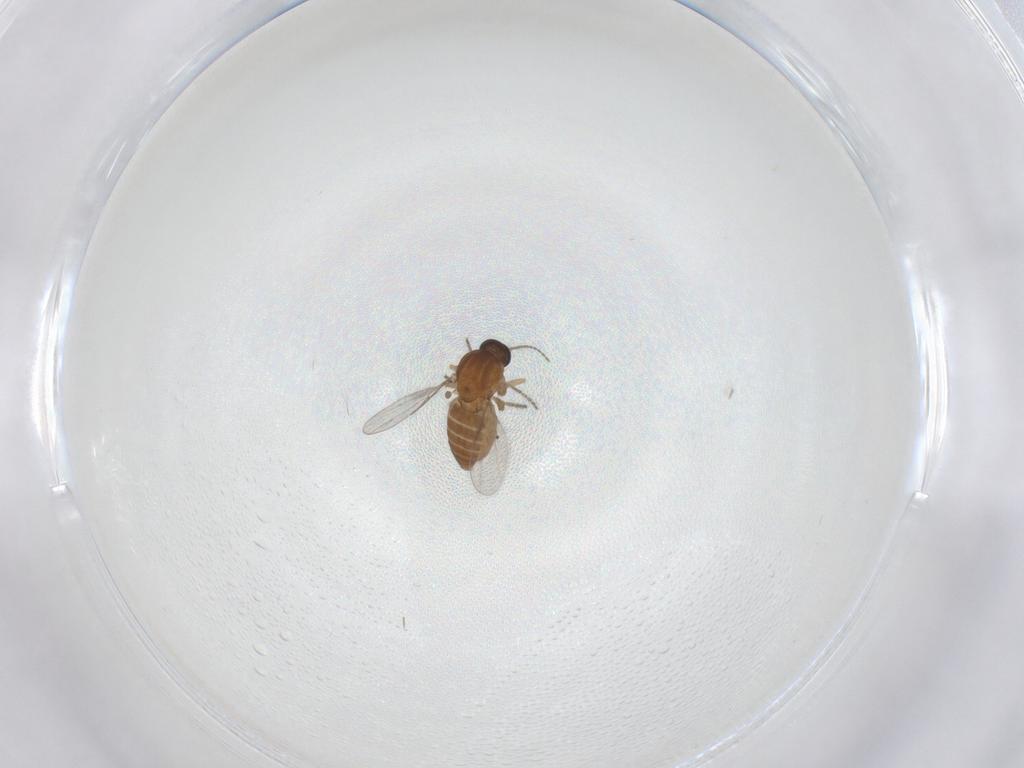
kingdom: Animalia
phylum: Arthropoda
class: Insecta
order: Diptera
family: Ceratopogonidae
